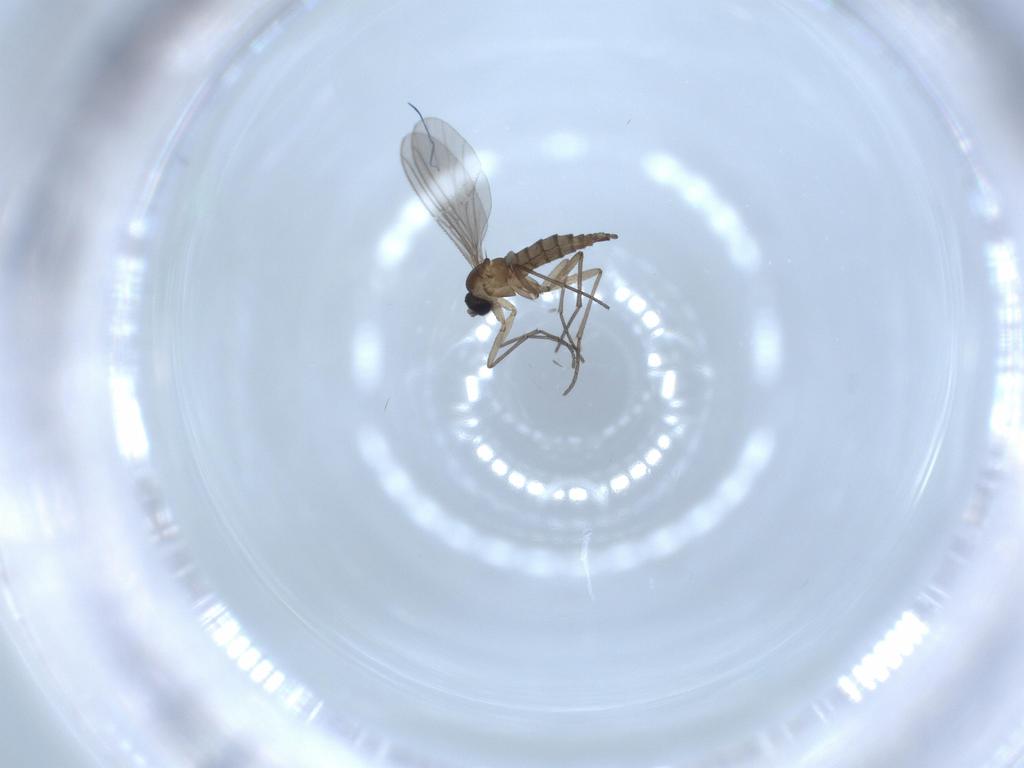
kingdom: Animalia
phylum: Arthropoda
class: Insecta
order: Diptera
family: Sciaridae
